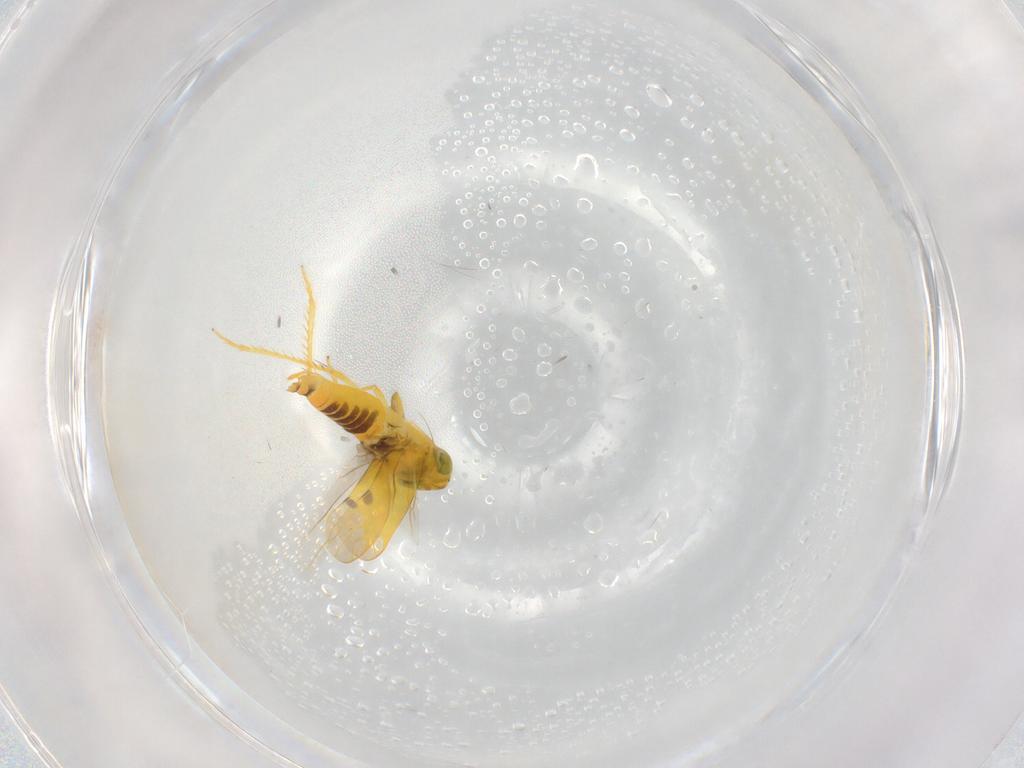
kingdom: Animalia
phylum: Arthropoda
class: Insecta
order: Hemiptera
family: Cicadellidae
